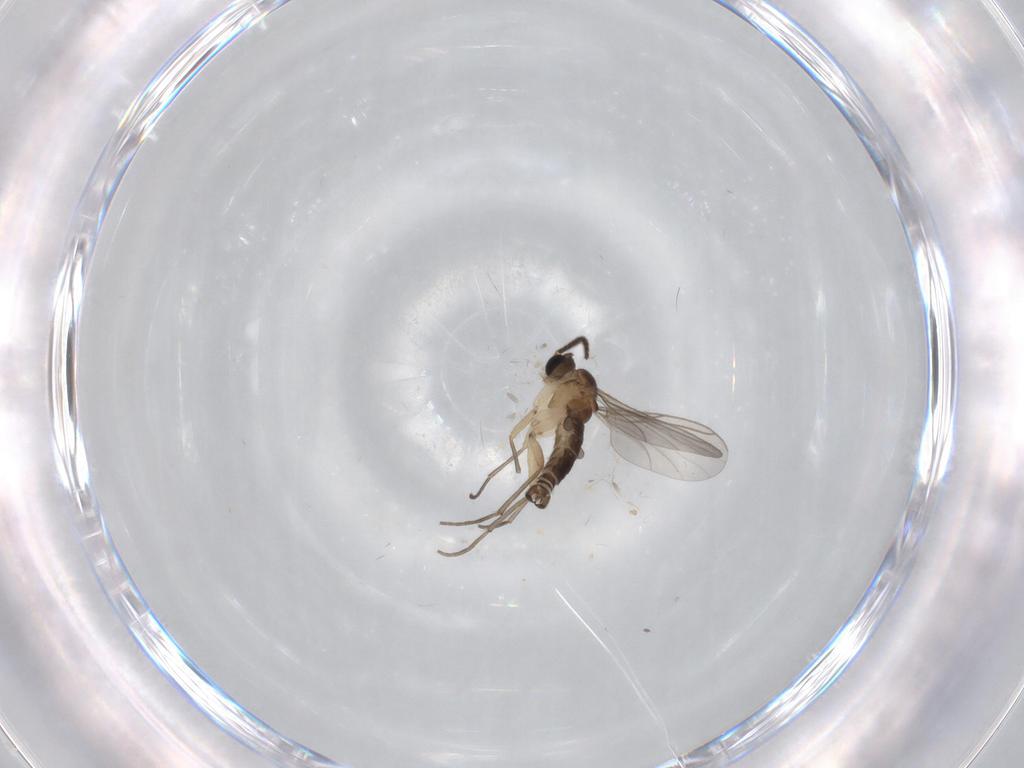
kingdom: Animalia
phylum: Arthropoda
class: Insecta
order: Diptera
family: Sciaridae
